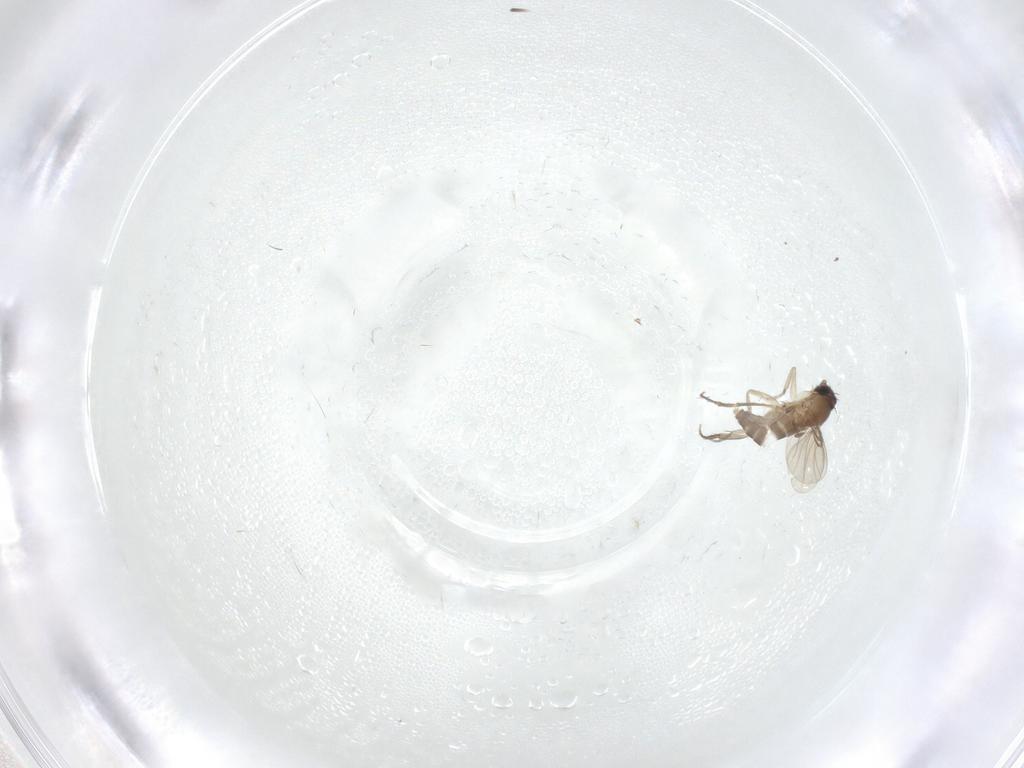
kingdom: Animalia
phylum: Arthropoda
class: Insecta
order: Diptera
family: Phoridae
